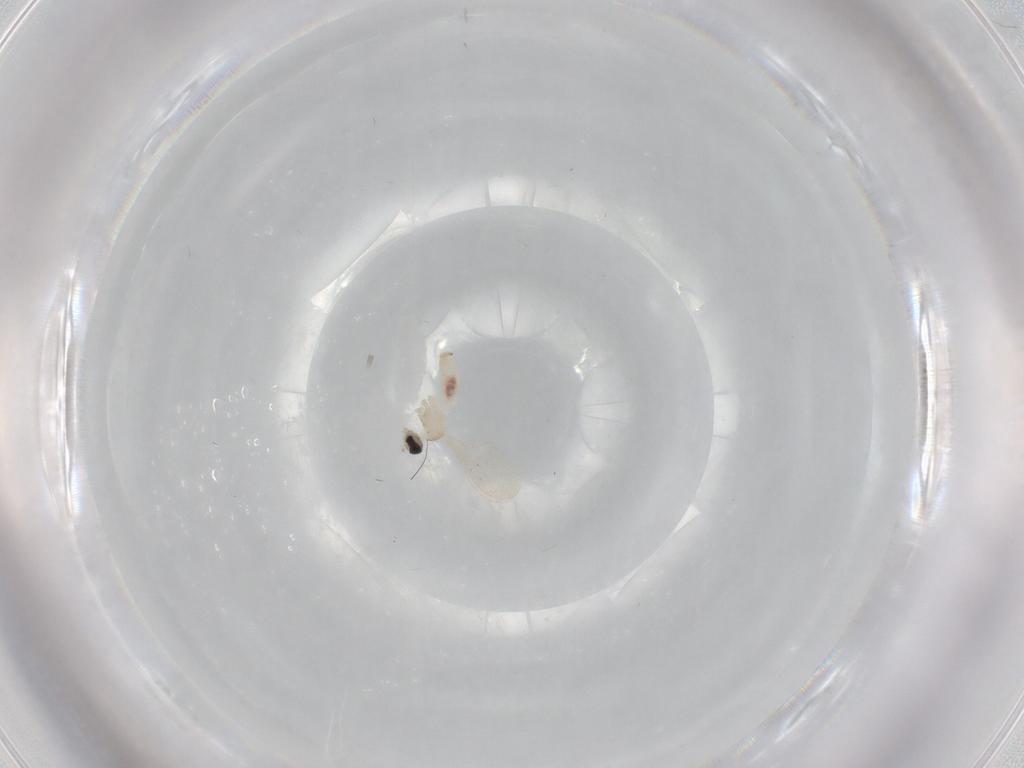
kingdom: Animalia
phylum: Arthropoda
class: Insecta
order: Diptera
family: Cecidomyiidae
